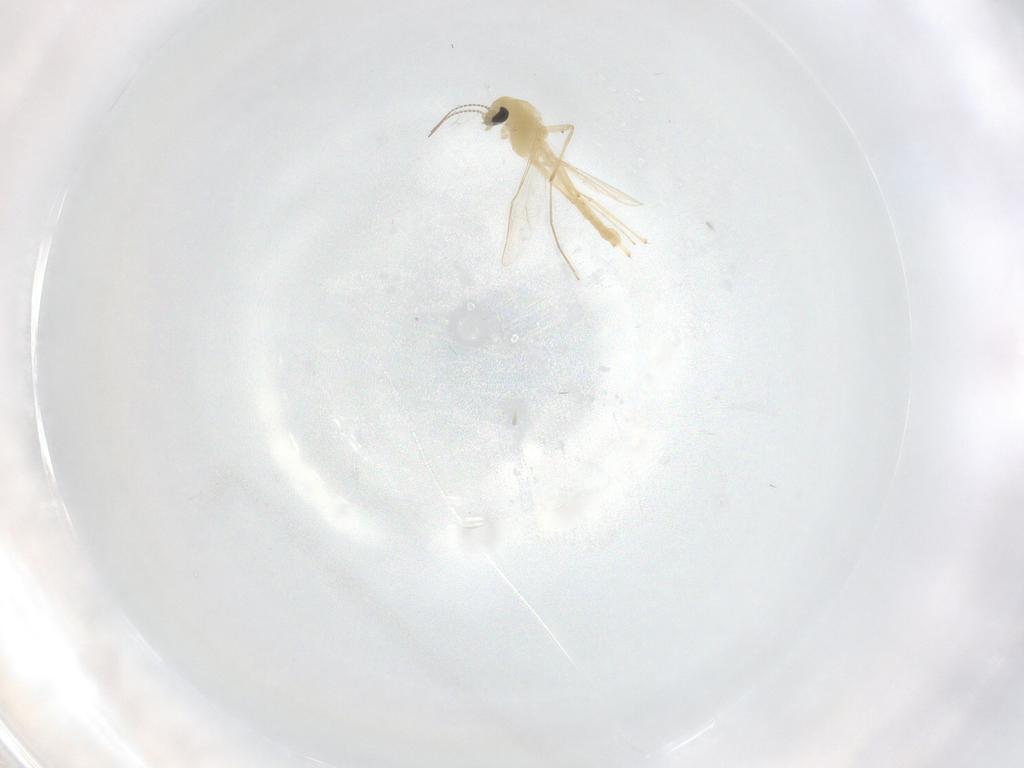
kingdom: Animalia
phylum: Arthropoda
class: Insecta
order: Diptera
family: Chironomidae
